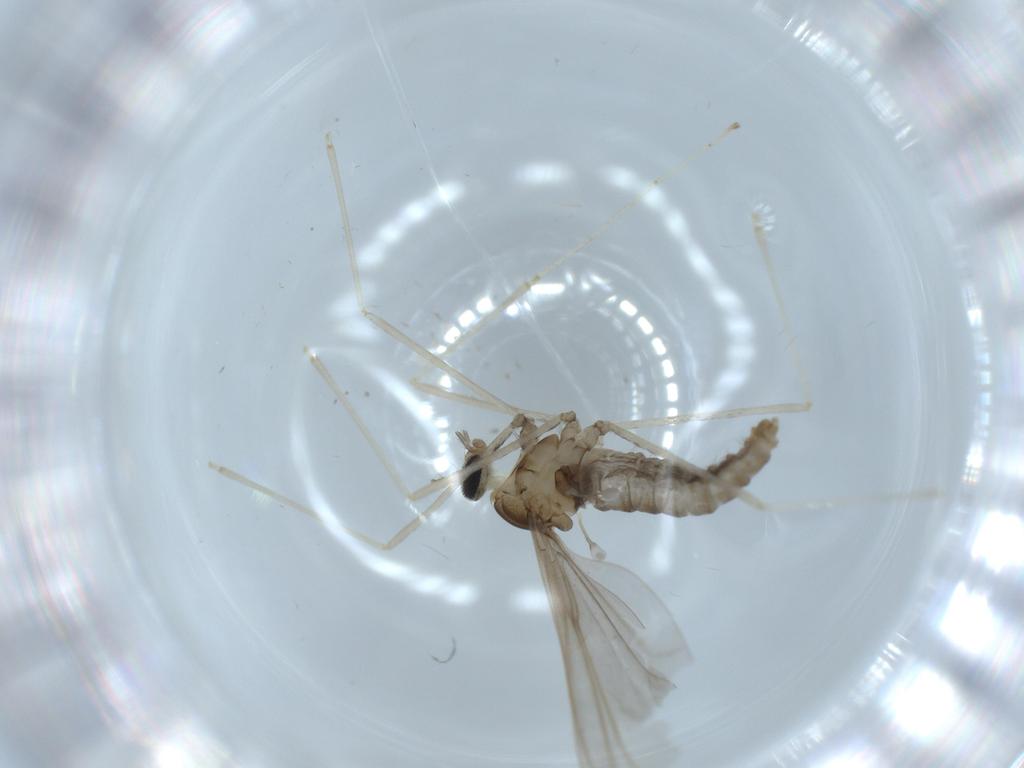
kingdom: Animalia
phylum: Arthropoda
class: Insecta
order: Diptera
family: Cecidomyiidae
